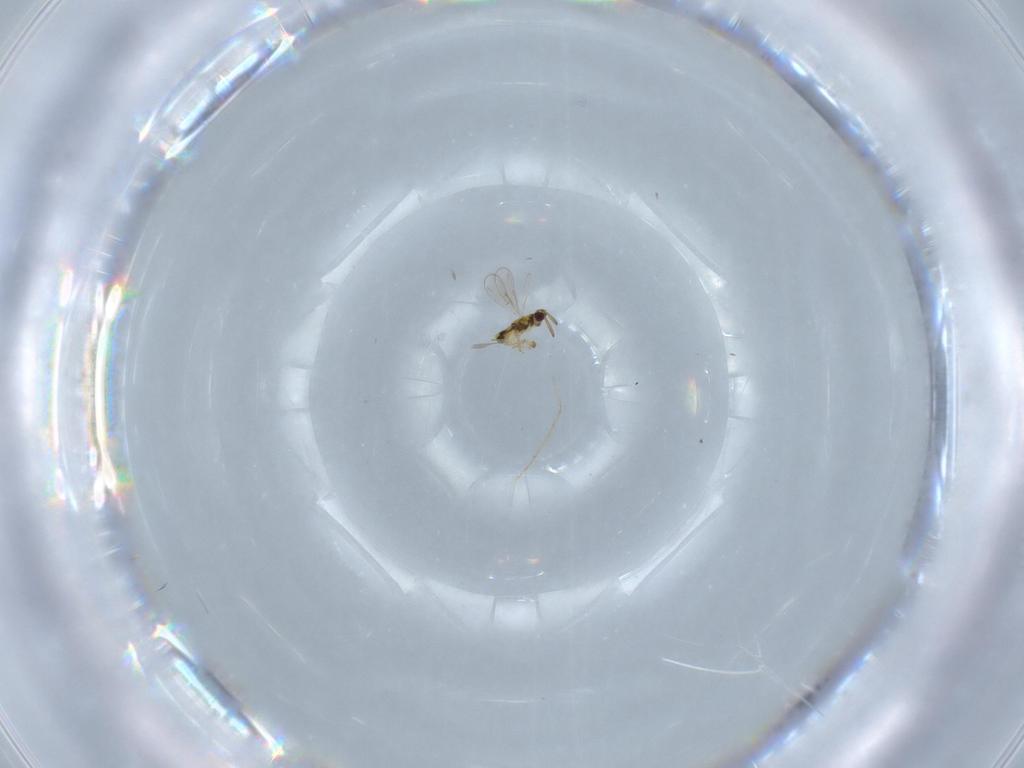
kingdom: Animalia
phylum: Arthropoda
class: Insecta
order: Hymenoptera
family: Aphelinidae
